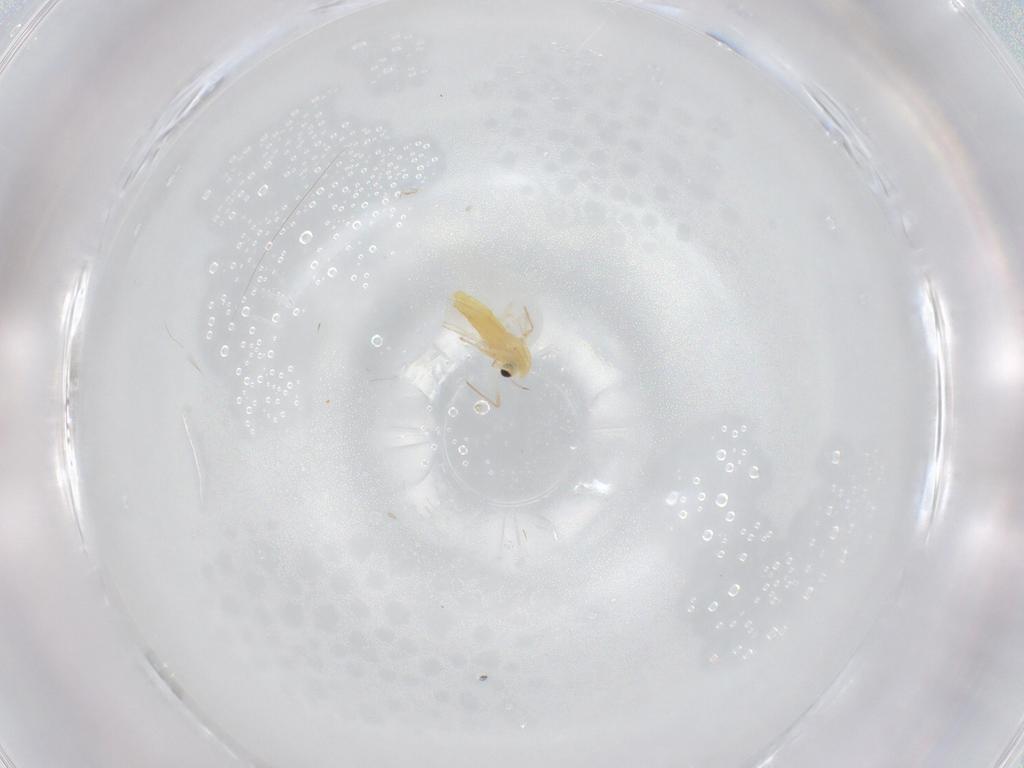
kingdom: Animalia
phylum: Arthropoda
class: Insecta
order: Diptera
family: Chironomidae
